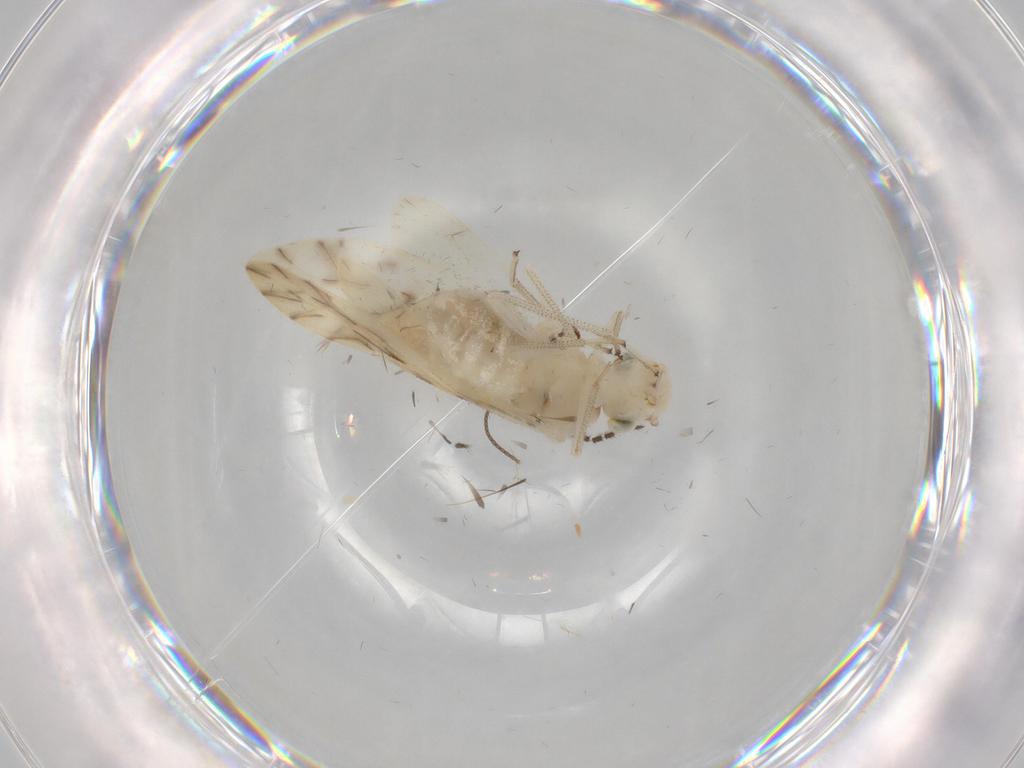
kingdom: Animalia
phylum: Arthropoda
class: Insecta
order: Psocodea
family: Caeciliusidae
